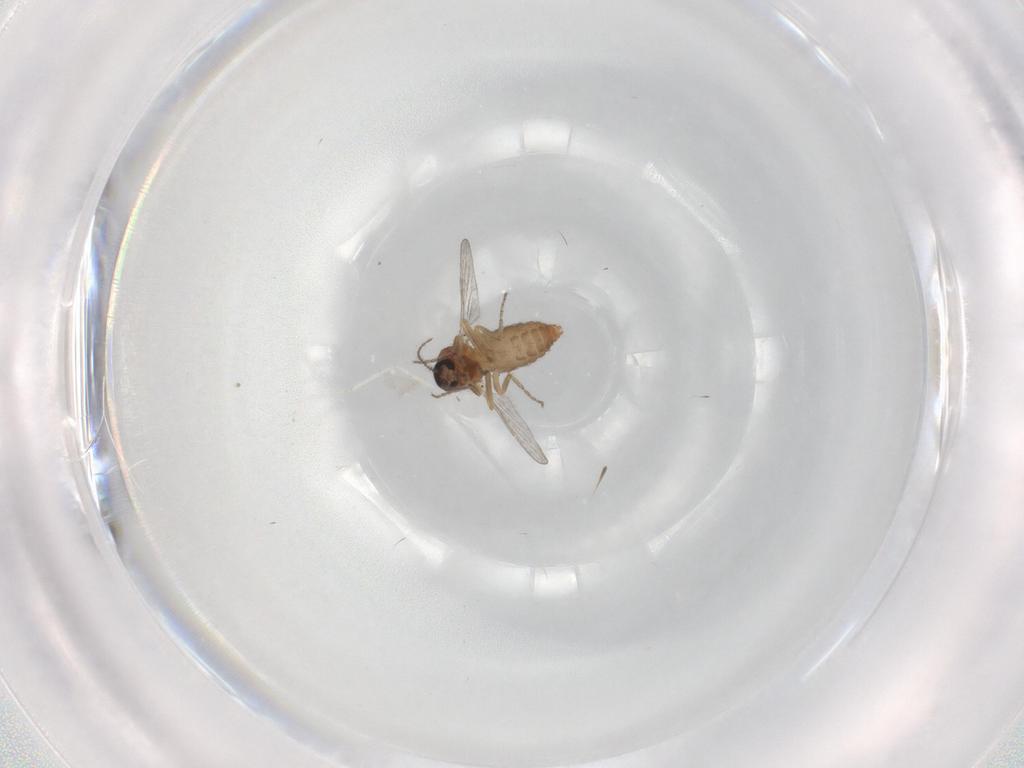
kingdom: Animalia
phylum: Arthropoda
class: Insecta
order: Diptera
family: Ceratopogonidae
